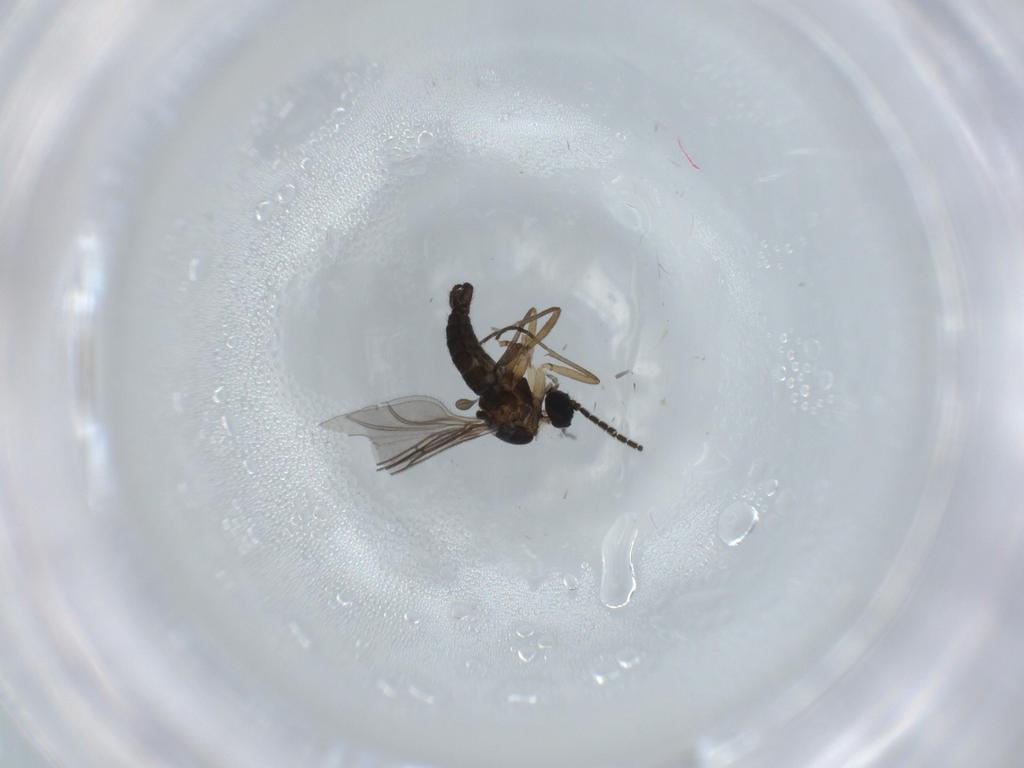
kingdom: Animalia
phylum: Arthropoda
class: Insecta
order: Diptera
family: Sciaridae
